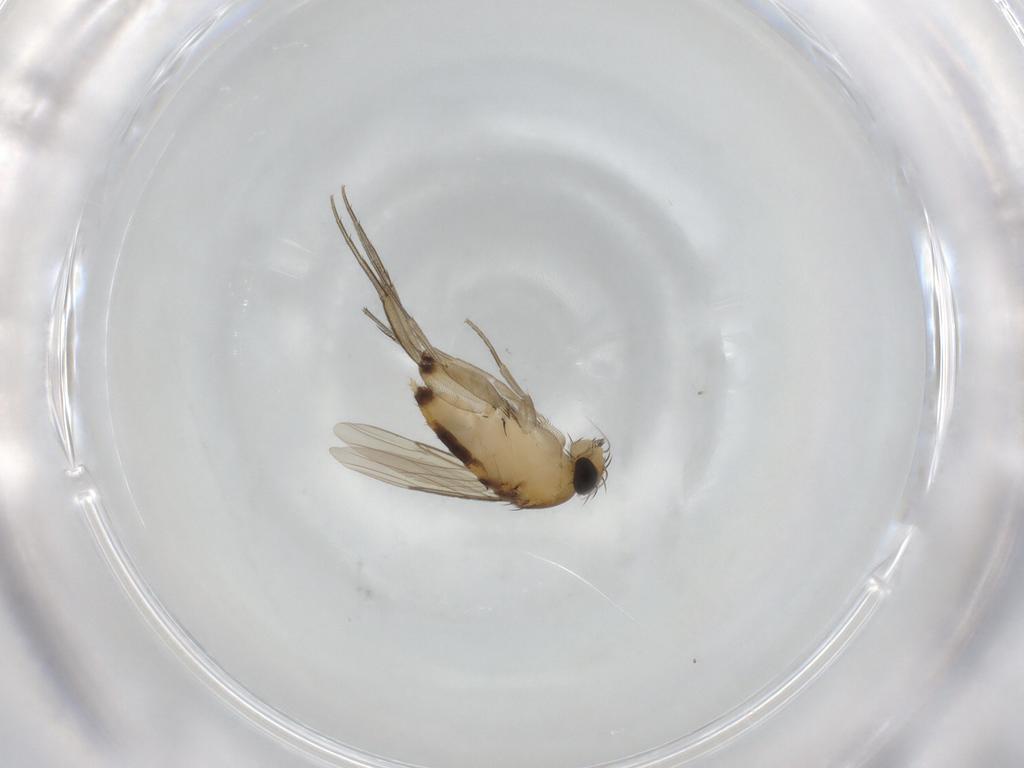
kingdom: Animalia
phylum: Arthropoda
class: Insecta
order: Diptera
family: Phoridae
